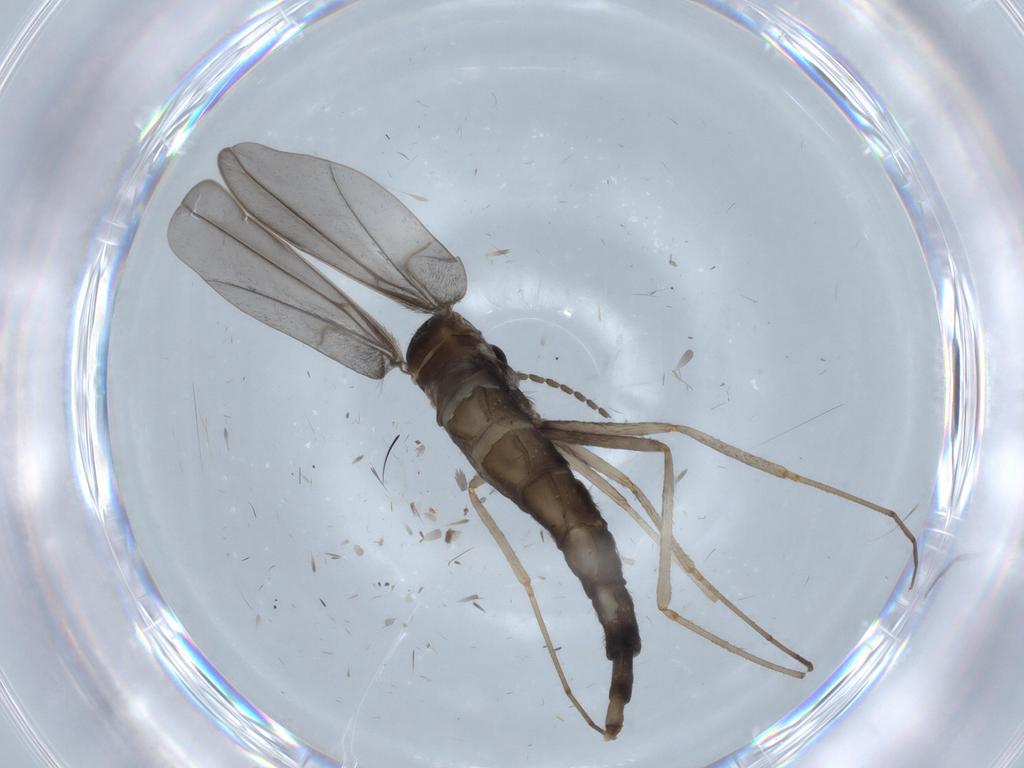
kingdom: Animalia
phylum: Arthropoda
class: Insecta
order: Diptera
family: Cecidomyiidae
